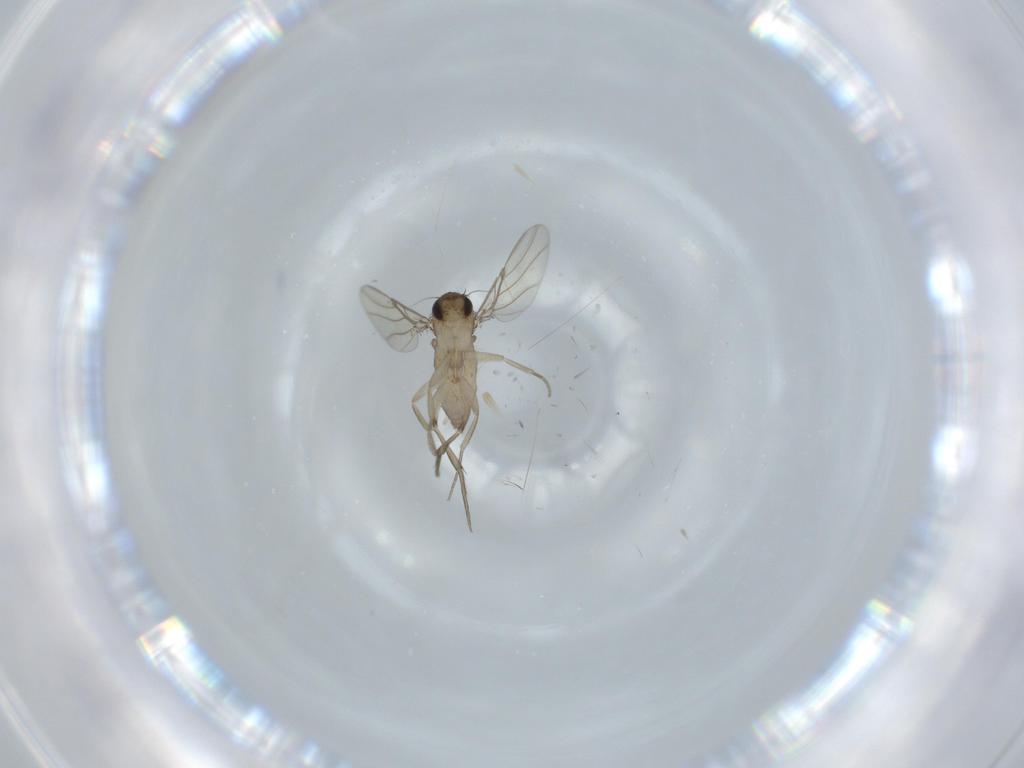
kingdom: Animalia
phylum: Arthropoda
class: Insecta
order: Diptera
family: Phoridae
